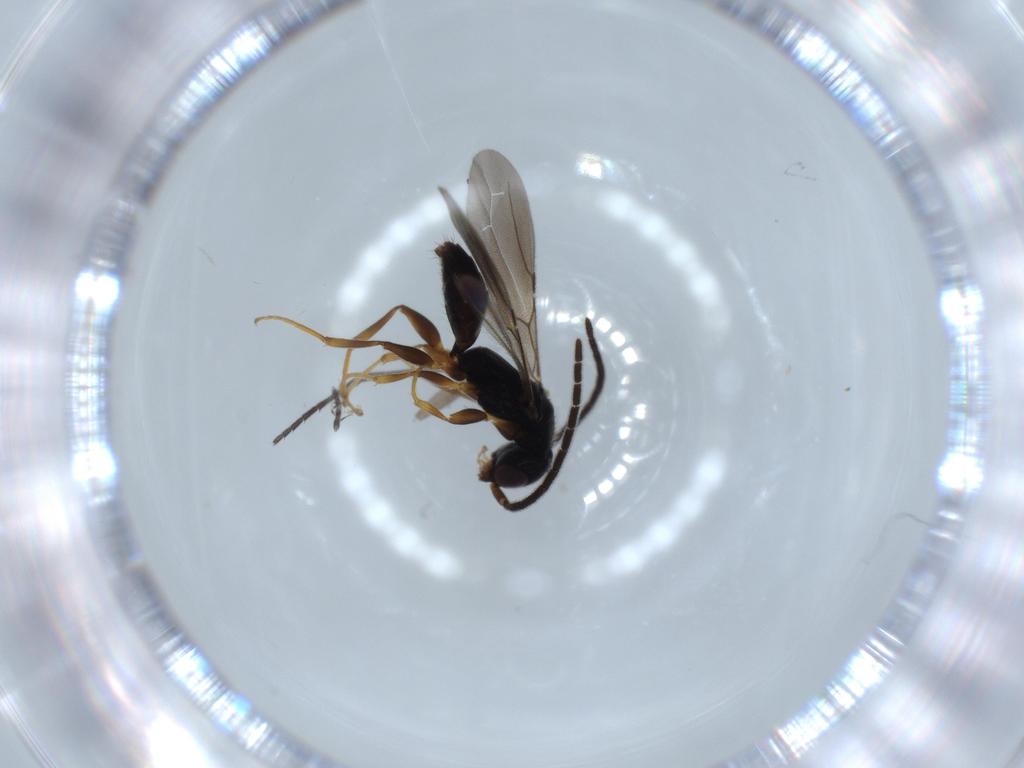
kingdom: Animalia
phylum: Arthropoda
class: Insecta
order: Hymenoptera
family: Bethylidae
